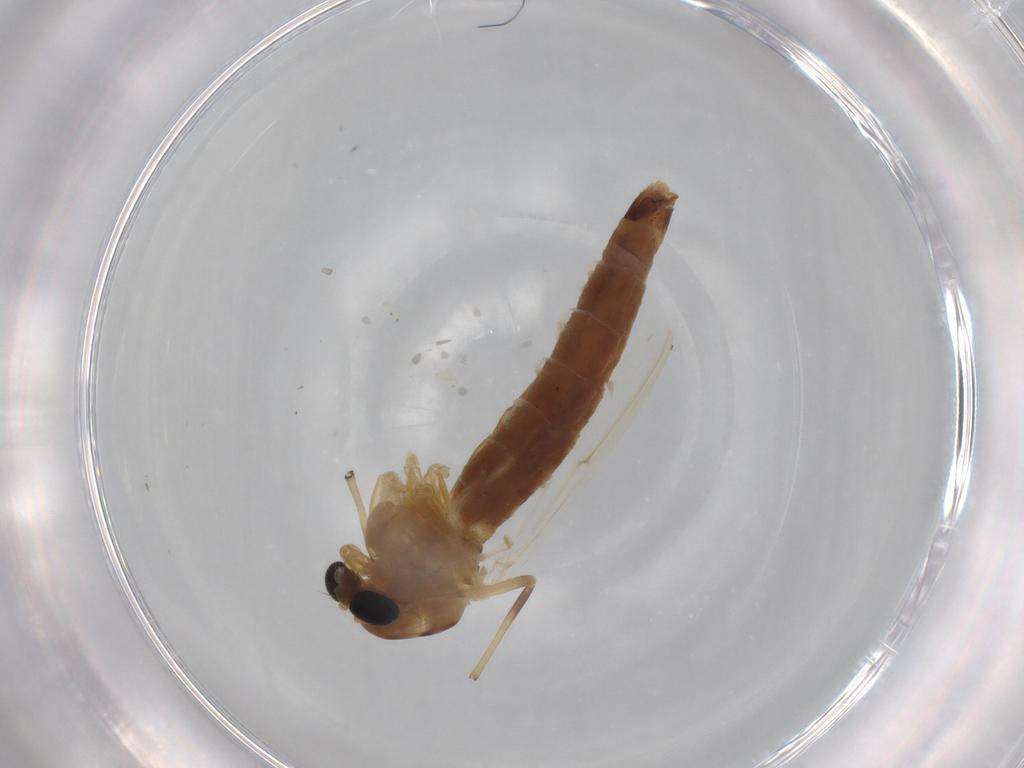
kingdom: Animalia
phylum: Arthropoda
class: Insecta
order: Diptera
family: Chironomidae
